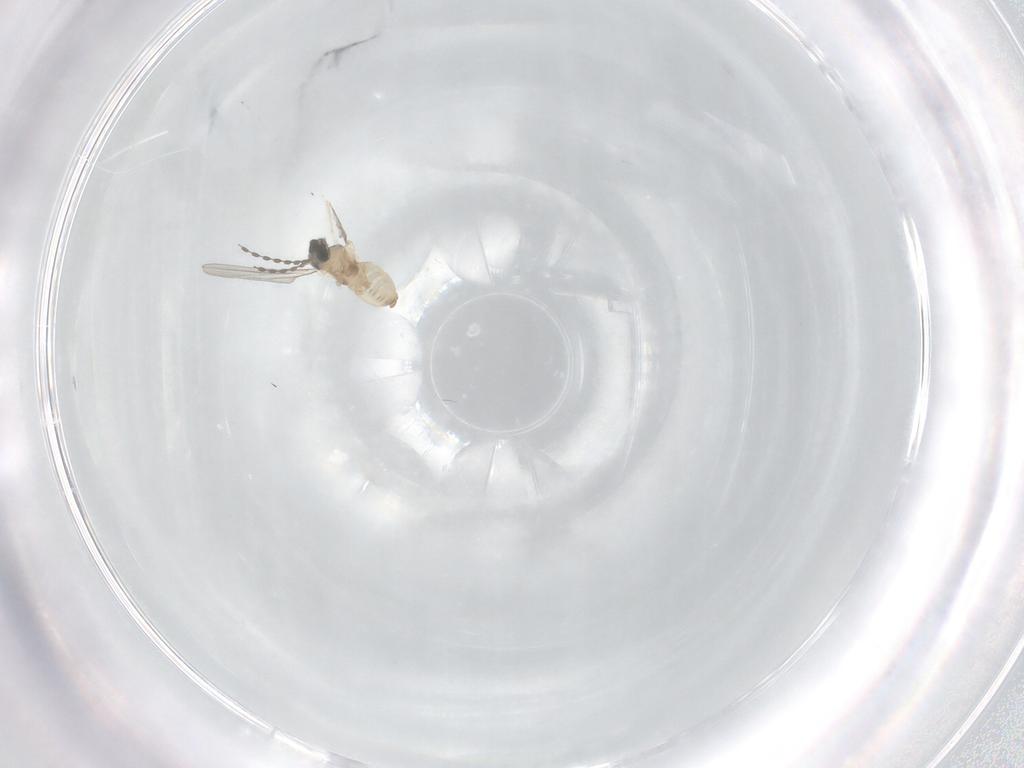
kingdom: Animalia
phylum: Arthropoda
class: Insecta
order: Diptera
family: Cecidomyiidae
